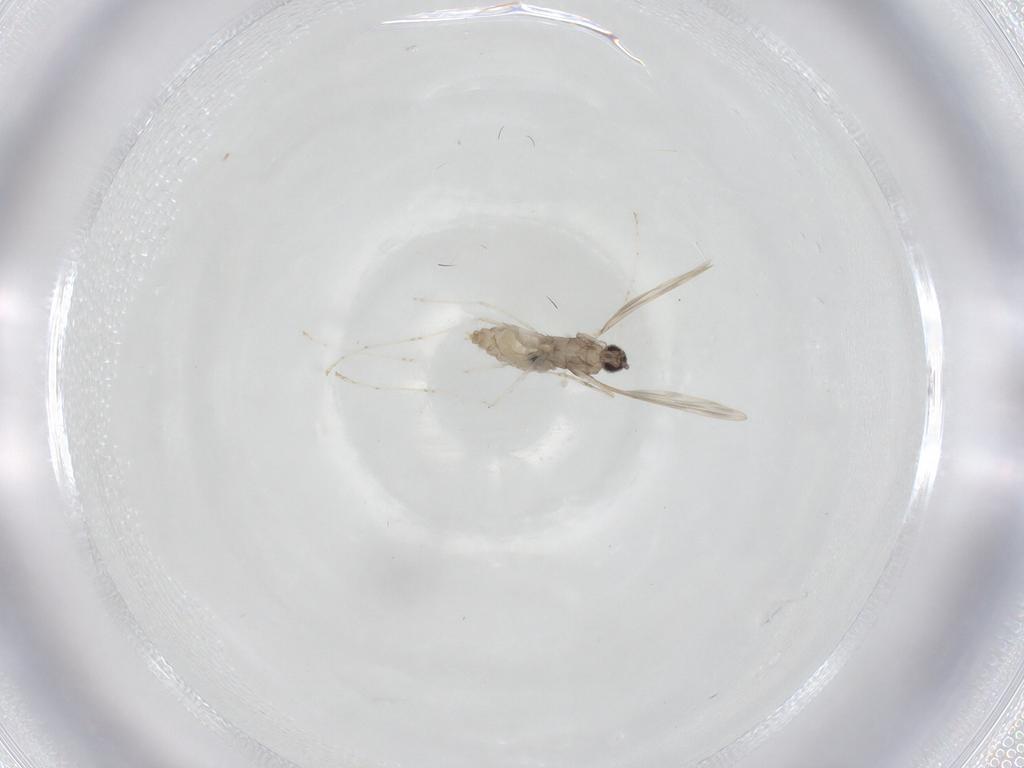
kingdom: Animalia
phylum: Arthropoda
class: Insecta
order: Diptera
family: Cecidomyiidae
